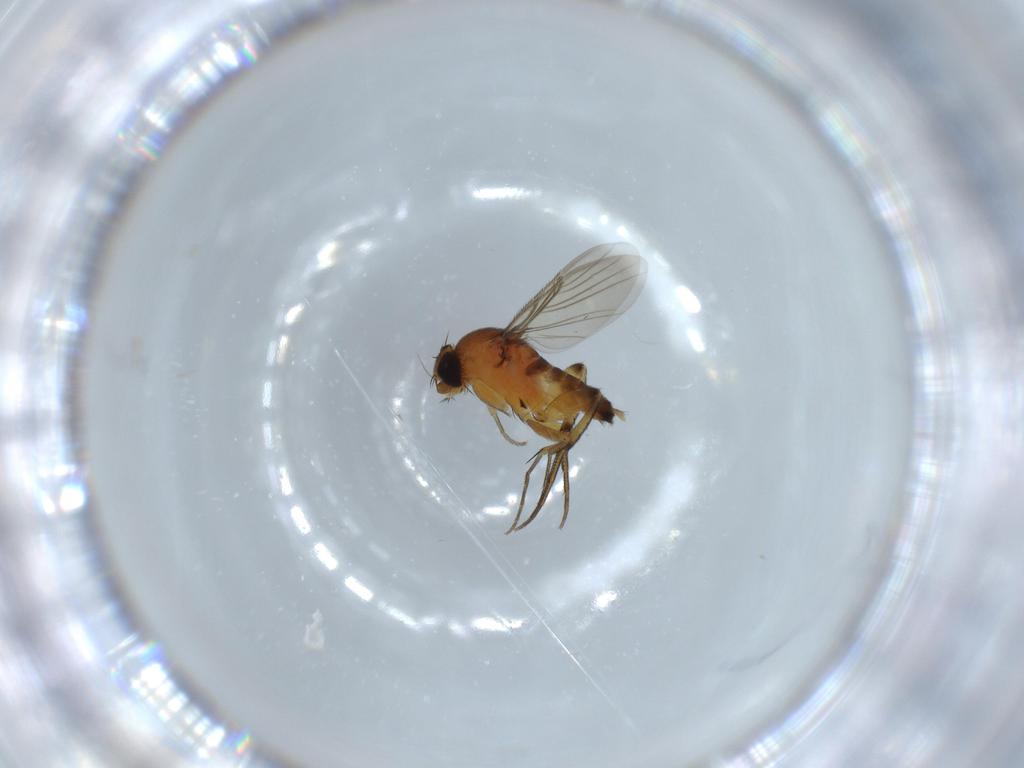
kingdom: Animalia
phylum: Arthropoda
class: Insecta
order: Diptera
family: Phoridae
